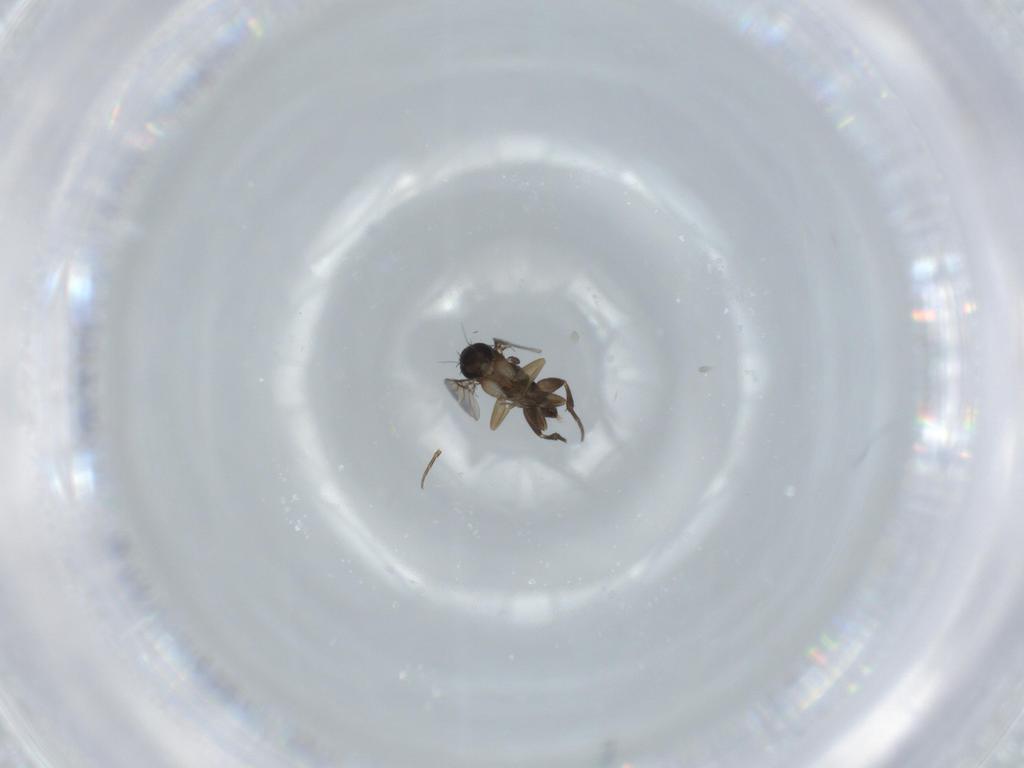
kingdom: Animalia
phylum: Arthropoda
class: Insecta
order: Diptera
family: Phoridae
